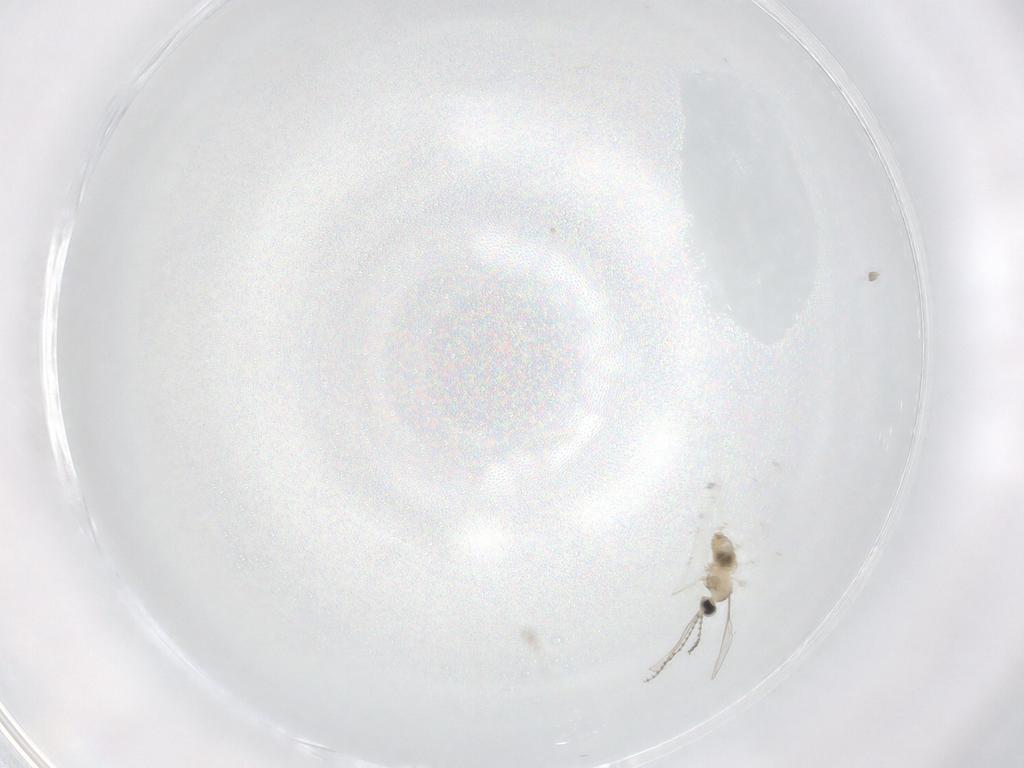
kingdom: Animalia
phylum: Arthropoda
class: Insecta
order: Diptera
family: Cecidomyiidae
